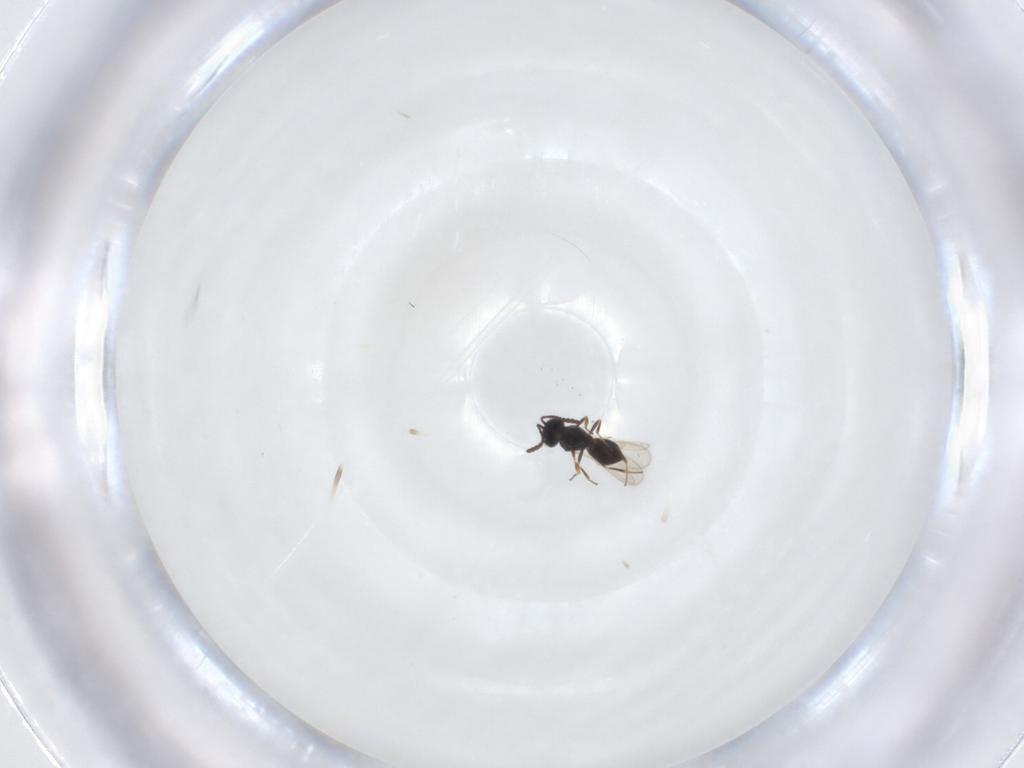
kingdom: Animalia
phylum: Arthropoda
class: Insecta
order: Hymenoptera
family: Scelionidae
